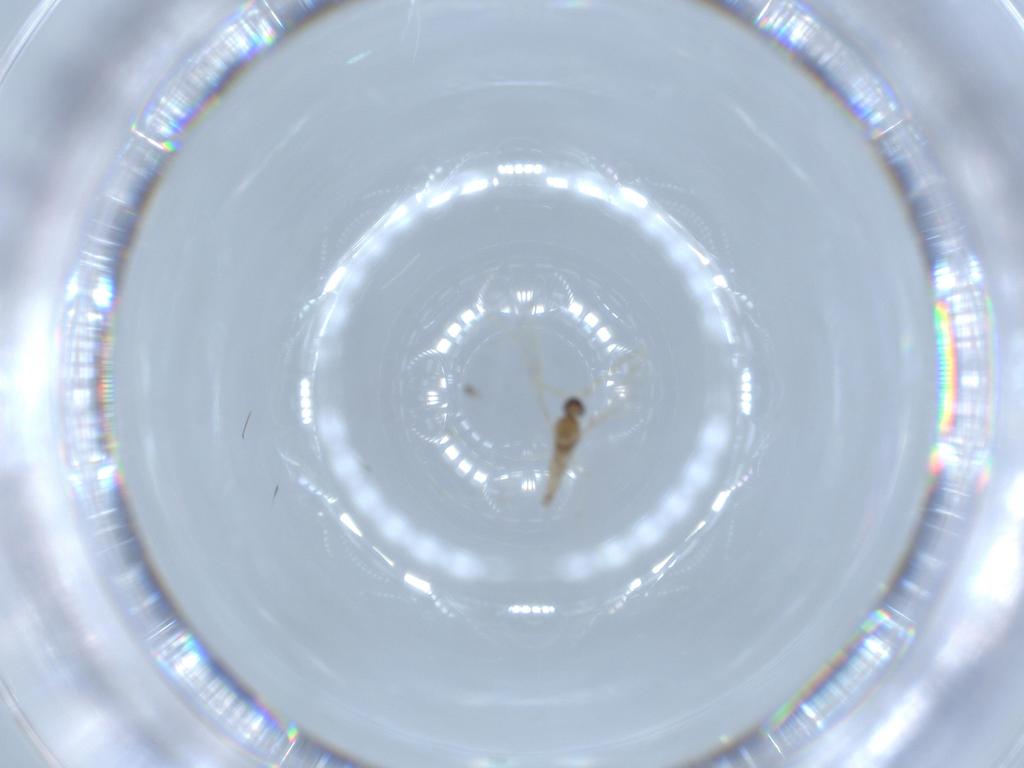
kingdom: Animalia
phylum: Arthropoda
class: Insecta
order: Diptera
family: Cecidomyiidae
